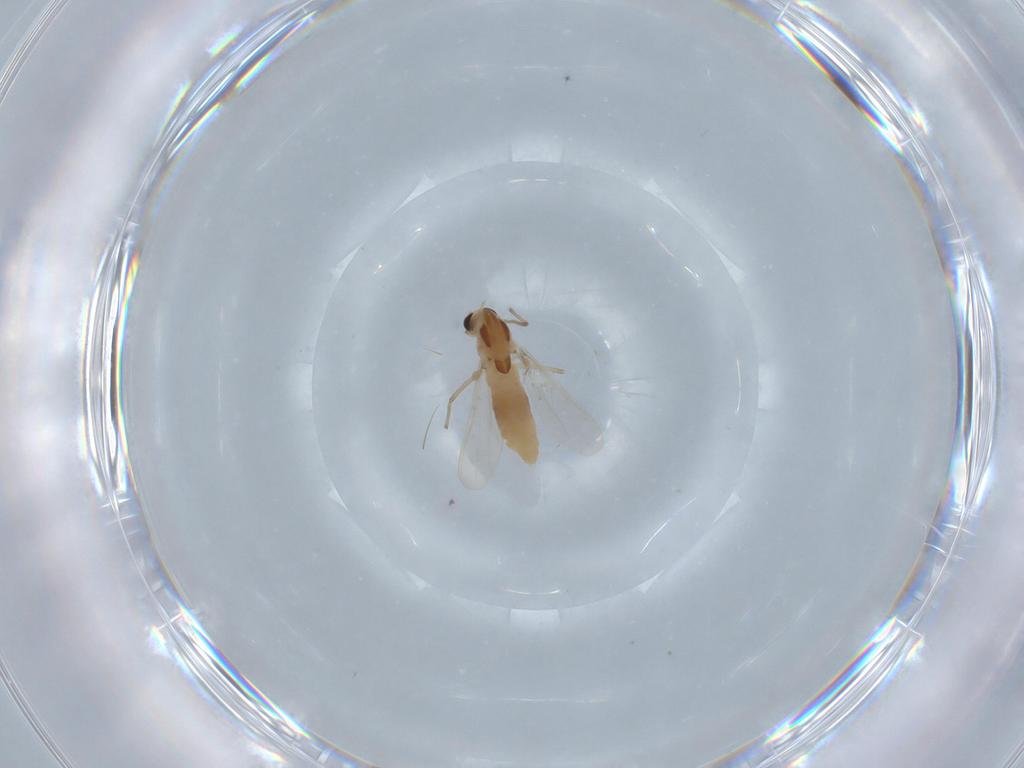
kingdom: Animalia
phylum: Arthropoda
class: Insecta
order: Diptera
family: Chironomidae
